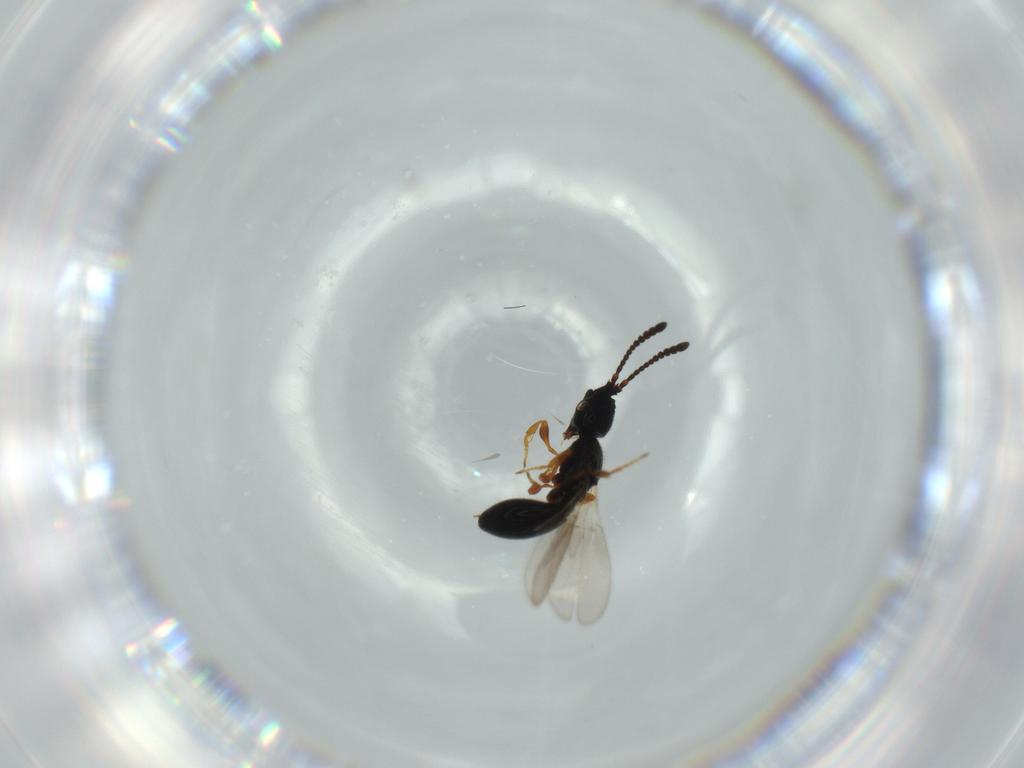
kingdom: Animalia
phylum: Arthropoda
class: Insecta
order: Hymenoptera
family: Diapriidae
